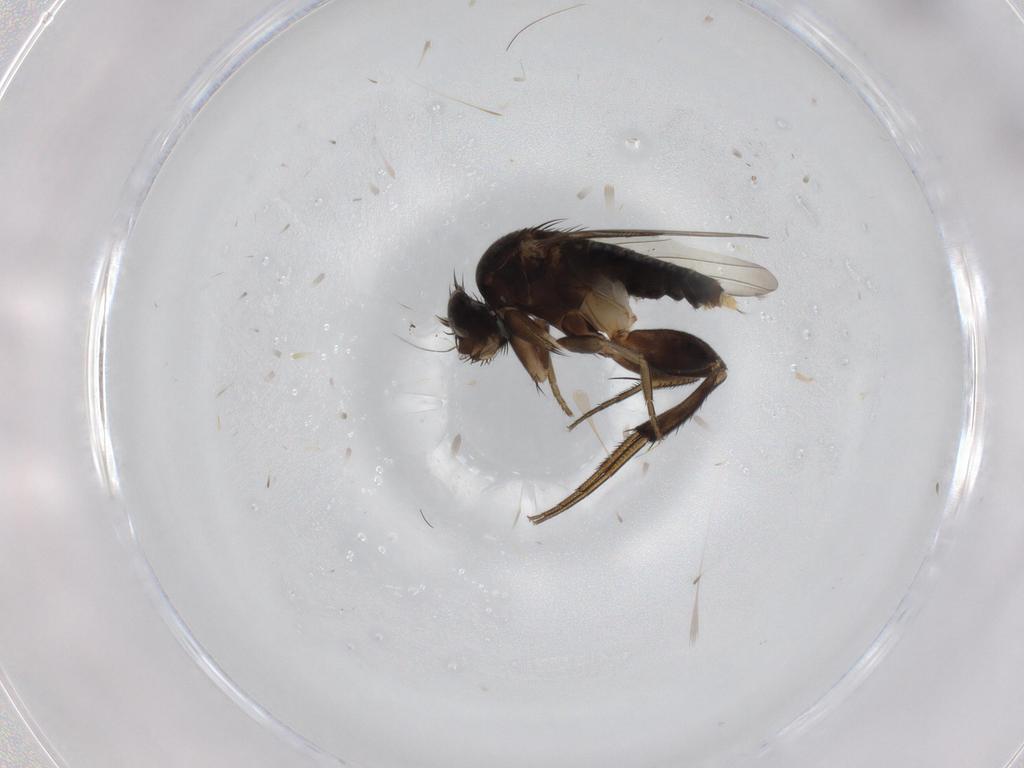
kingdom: Animalia
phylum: Arthropoda
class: Insecta
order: Diptera
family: Phoridae
